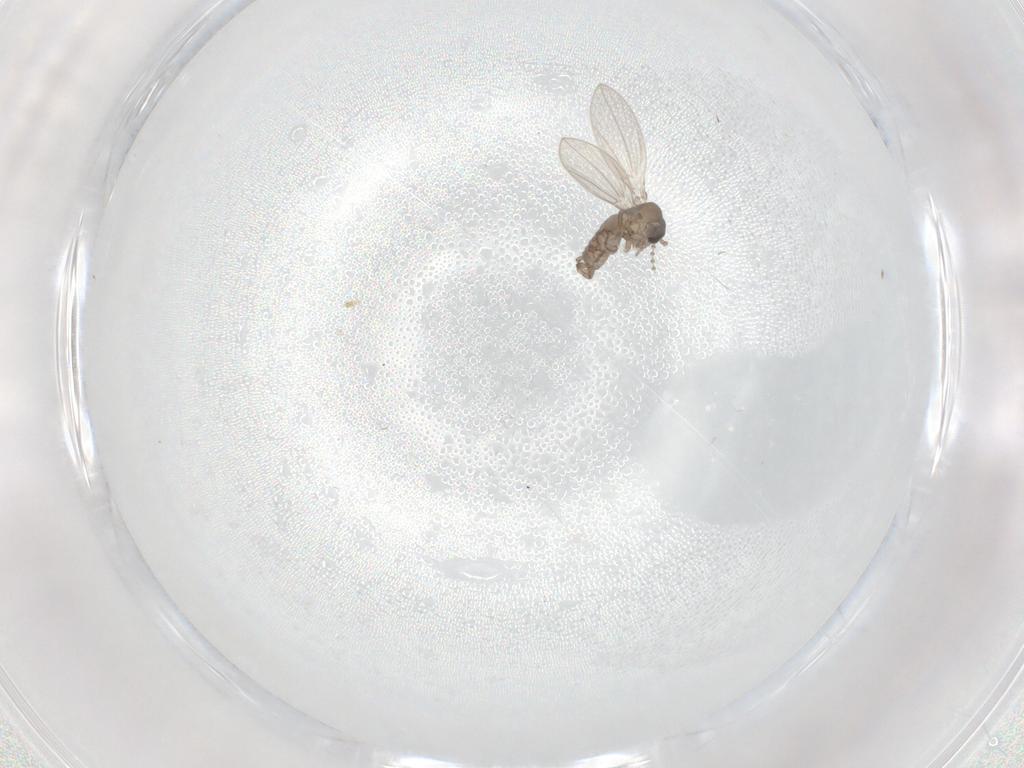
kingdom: Animalia
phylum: Arthropoda
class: Insecta
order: Diptera
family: Psychodidae
